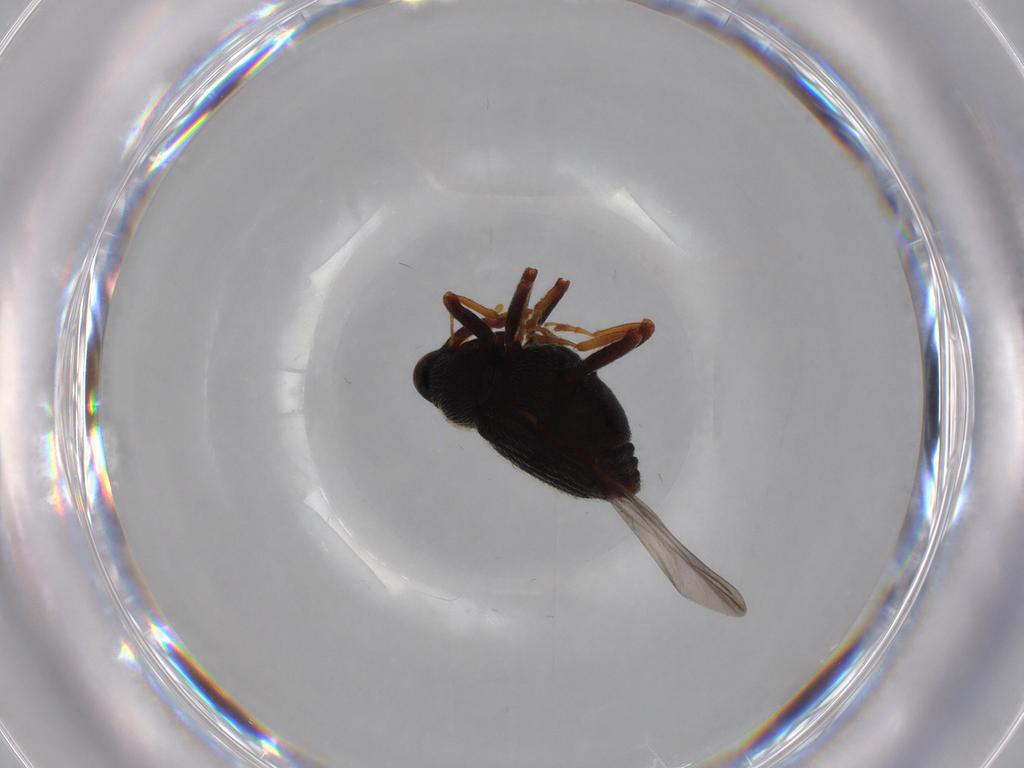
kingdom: Animalia
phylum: Arthropoda
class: Insecta
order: Coleoptera
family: Curculionidae
